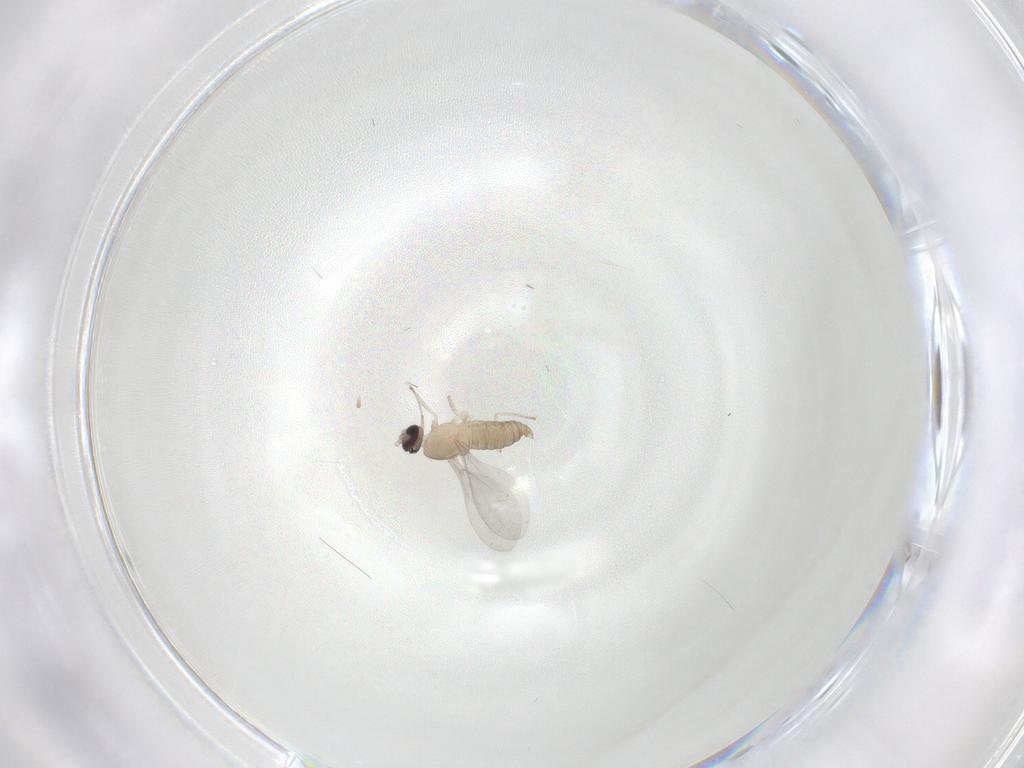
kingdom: Animalia
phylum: Arthropoda
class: Insecta
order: Diptera
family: Cecidomyiidae
